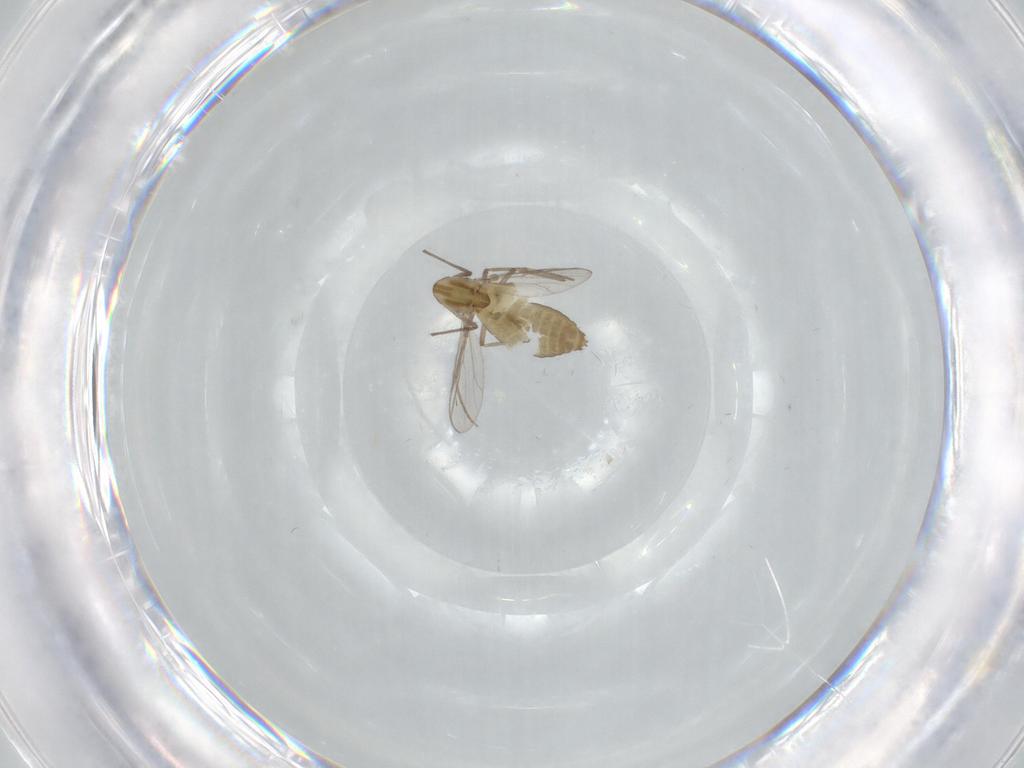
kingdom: Animalia
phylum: Arthropoda
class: Insecta
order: Diptera
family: Chironomidae
